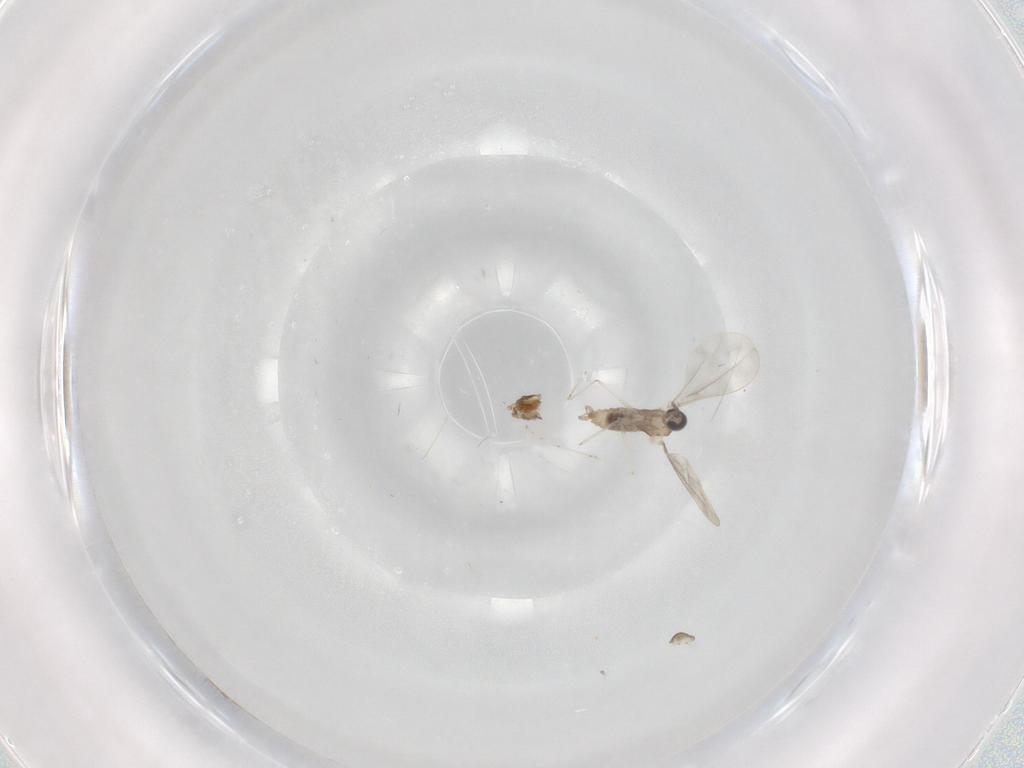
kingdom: Animalia
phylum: Arthropoda
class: Insecta
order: Diptera
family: Cecidomyiidae
